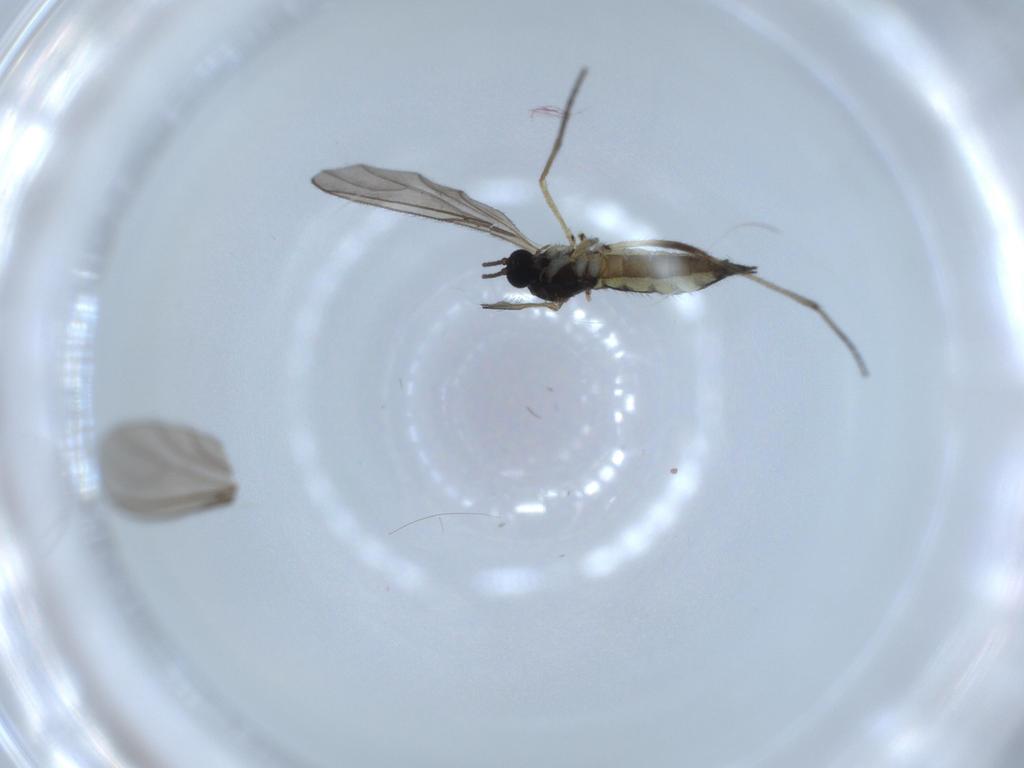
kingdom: Animalia
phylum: Arthropoda
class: Insecta
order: Diptera
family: Sciaridae
